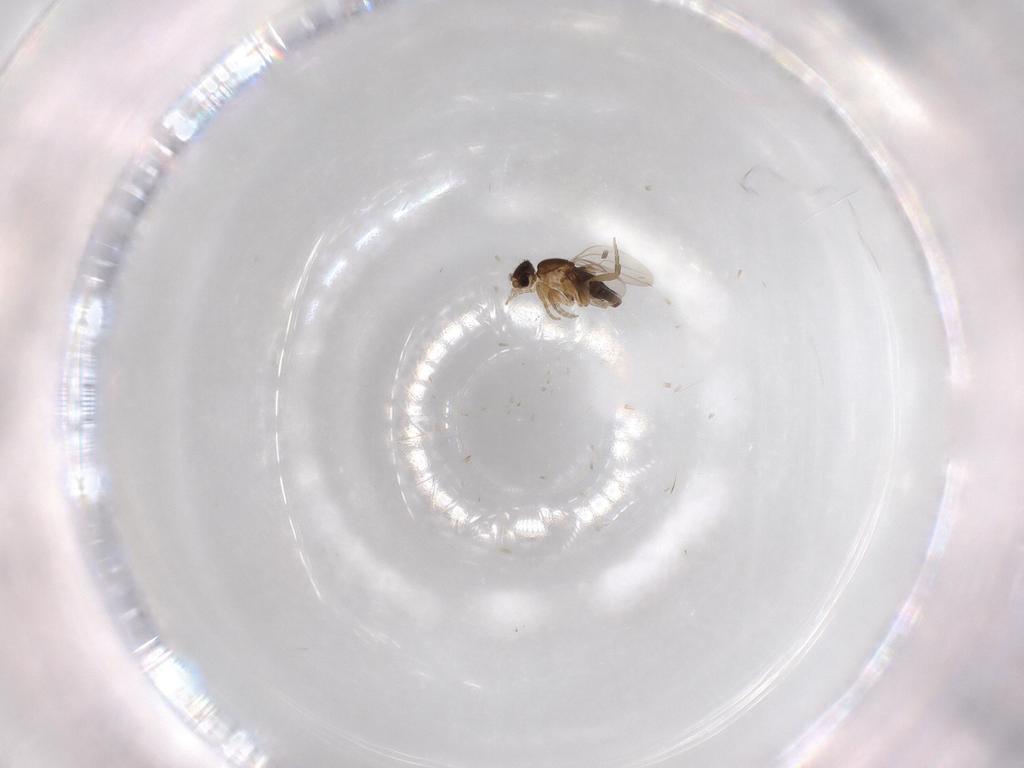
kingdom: Animalia
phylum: Arthropoda
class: Insecta
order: Diptera
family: Phoridae
